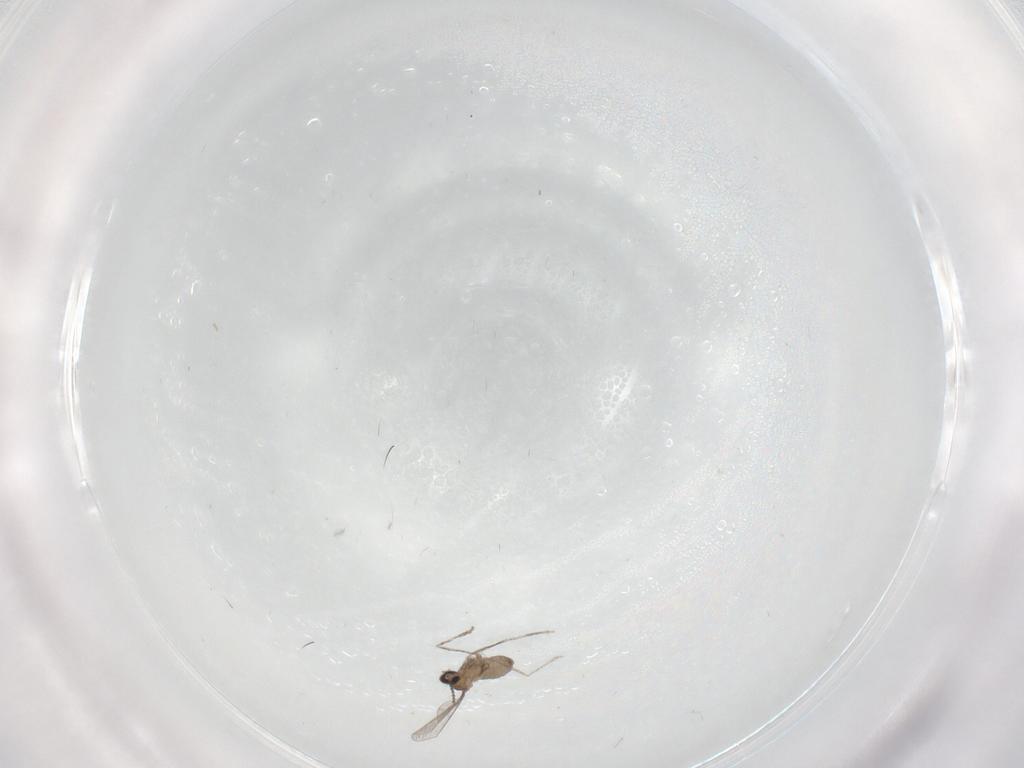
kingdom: Animalia
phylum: Arthropoda
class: Insecta
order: Diptera
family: Cecidomyiidae
